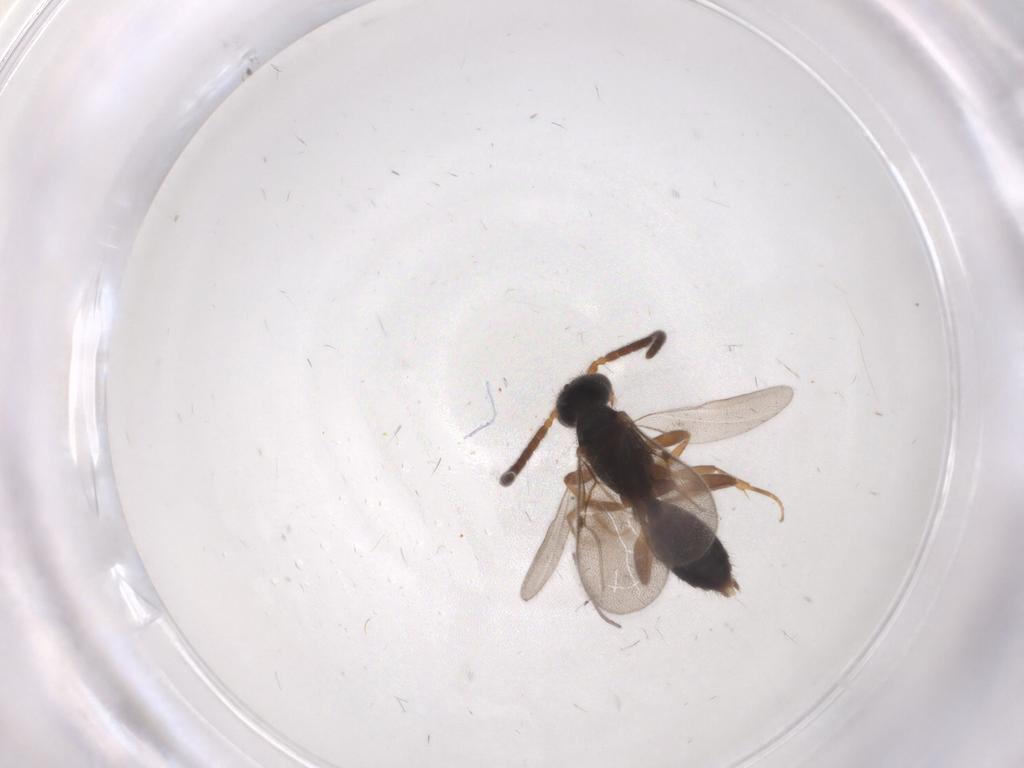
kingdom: Animalia
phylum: Arthropoda
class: Insecta
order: Hymenoptera
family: Bethylidae
